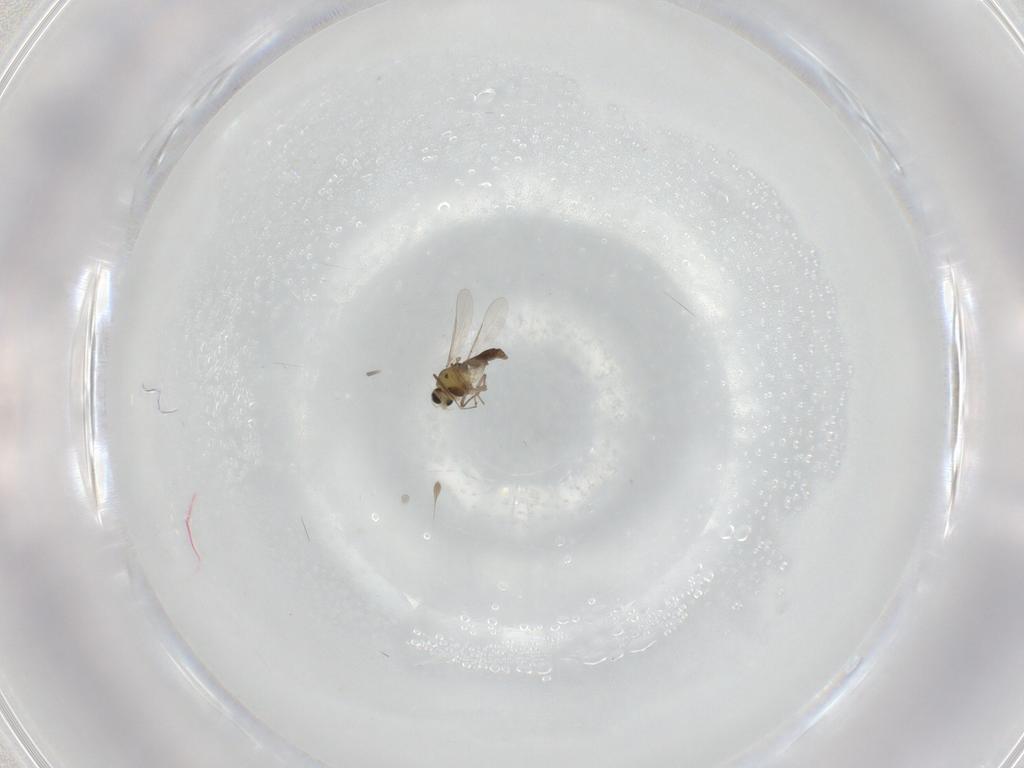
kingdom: Animalia
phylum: Arthropoda
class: Insecta
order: Diptera
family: Chironomidae
